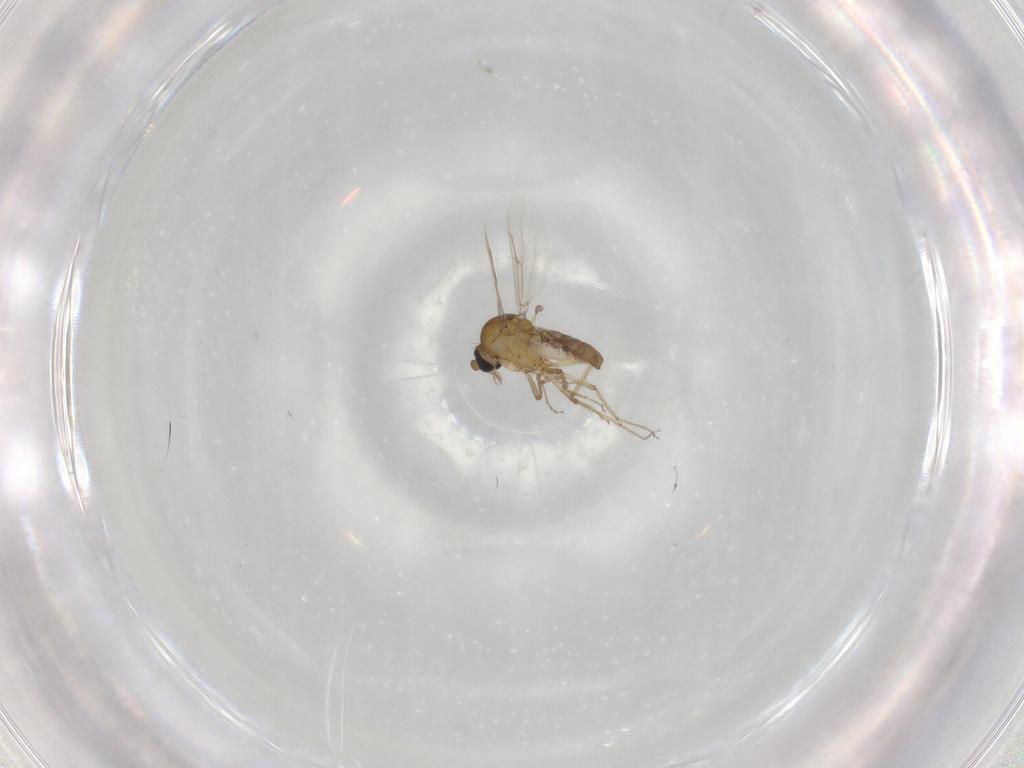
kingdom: Animalia
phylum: Arthropoda
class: Insecta
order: Diptera
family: Ceratopogonidae
